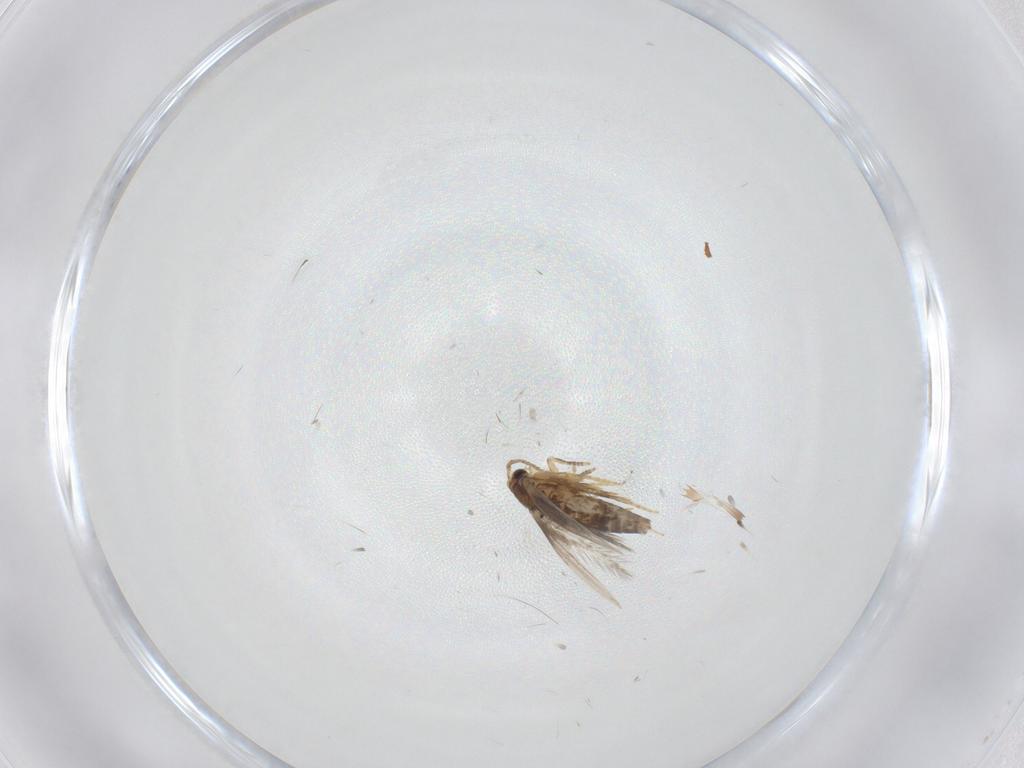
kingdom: Animalia
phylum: Arthropoda
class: Insecta
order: Lepidoptera
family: Copromorphidae
